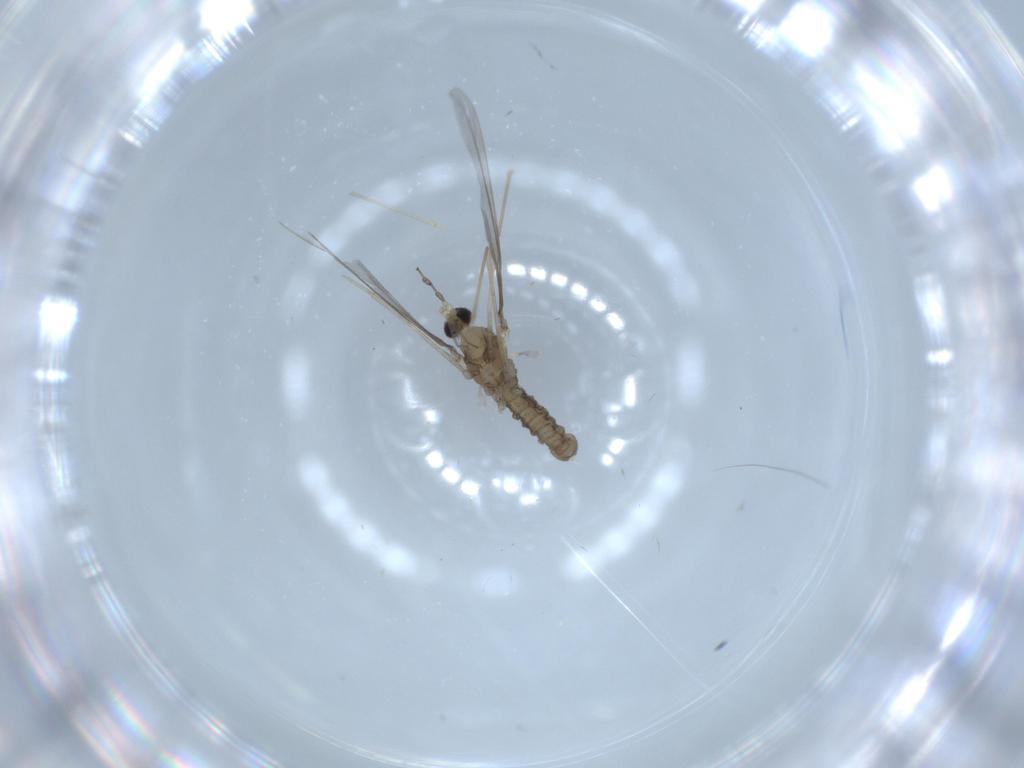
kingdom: Animalia
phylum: Arthropoda
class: Insecta
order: Diptera
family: Cecidomyiidae
